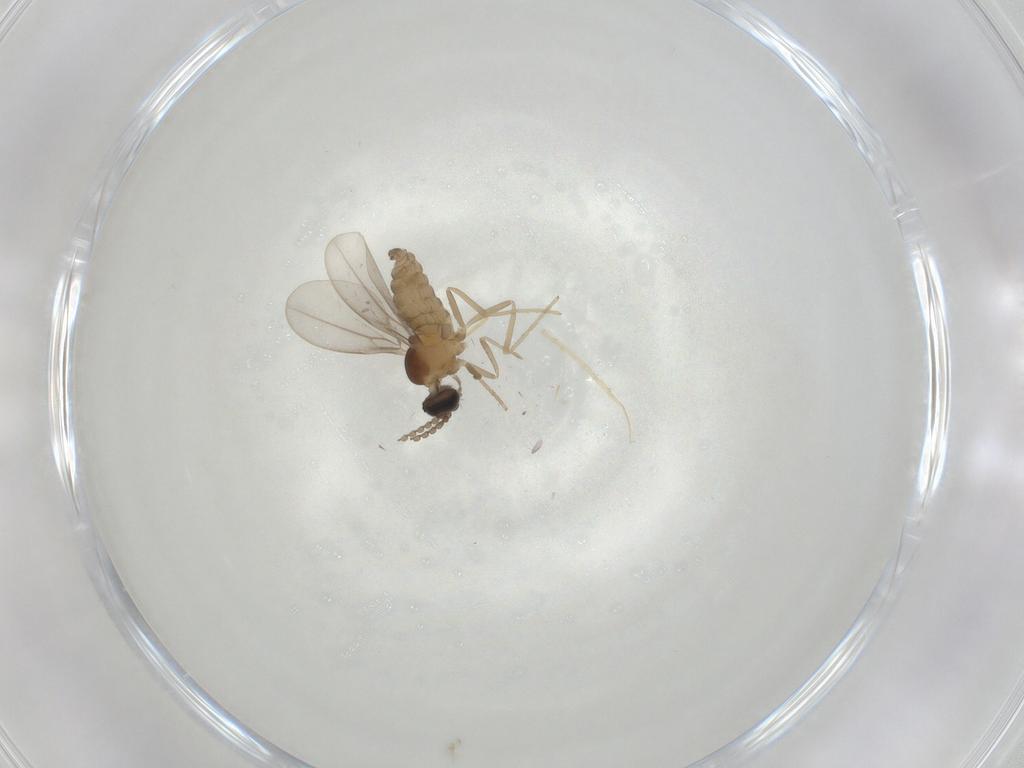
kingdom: Animalia
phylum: Arthropoda
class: Insecta
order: Diptera
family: Cecidomyiidae
